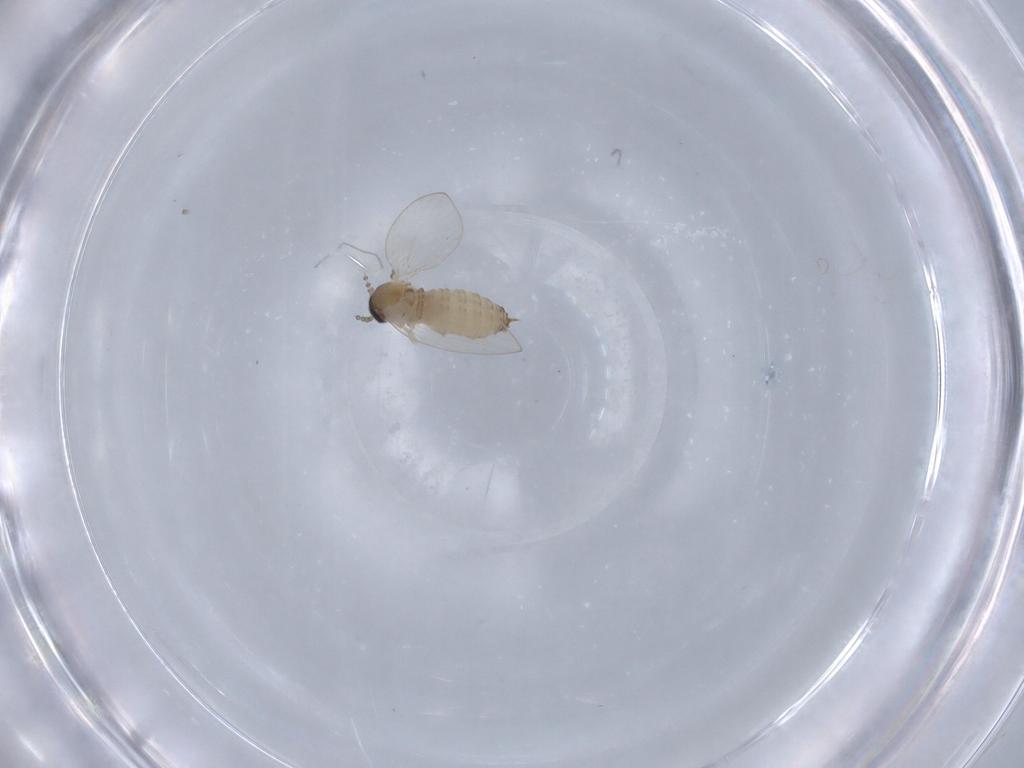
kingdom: Animalia
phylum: Arthropoda
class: Insecta
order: Diptera
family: Psychodidae
